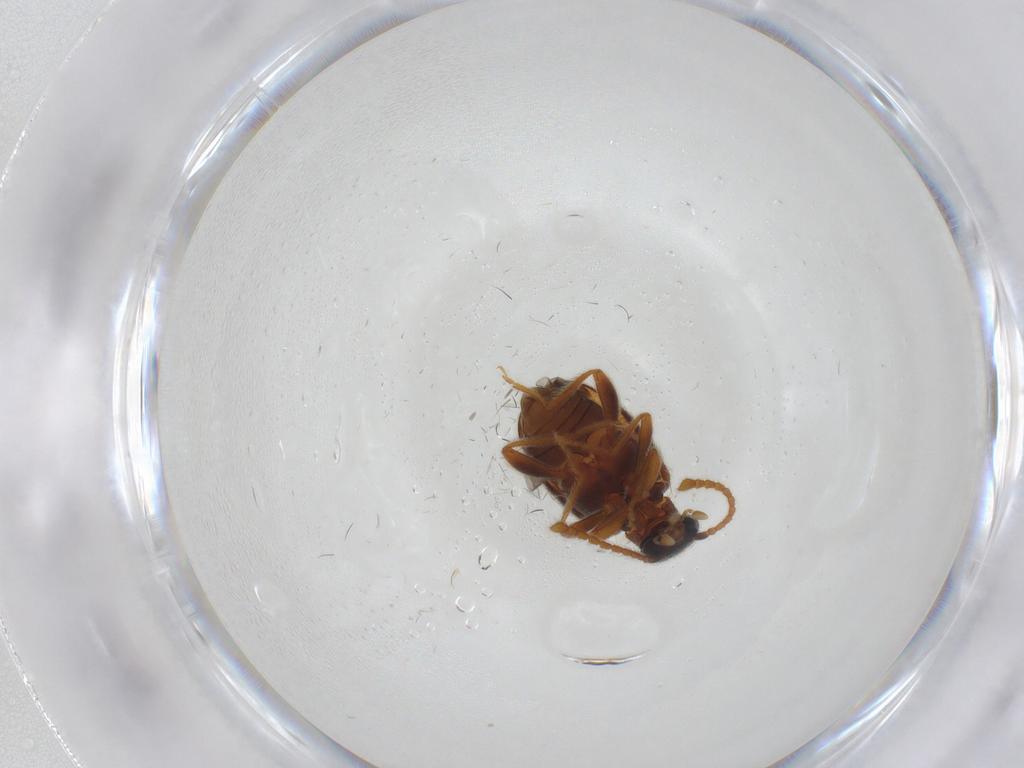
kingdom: Animalia
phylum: Arthropoda
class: Insecta
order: Coleoptera
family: Aderidae
